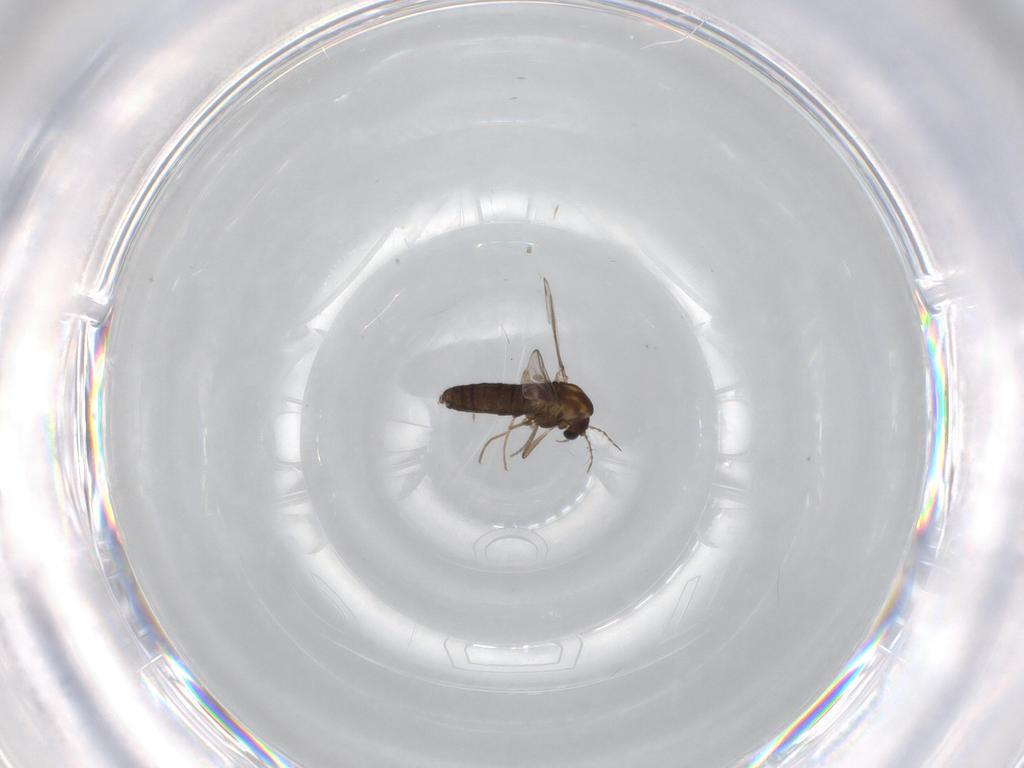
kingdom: Animalia
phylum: Arthropoda
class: Insecta
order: Diptera
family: Chironomidae
